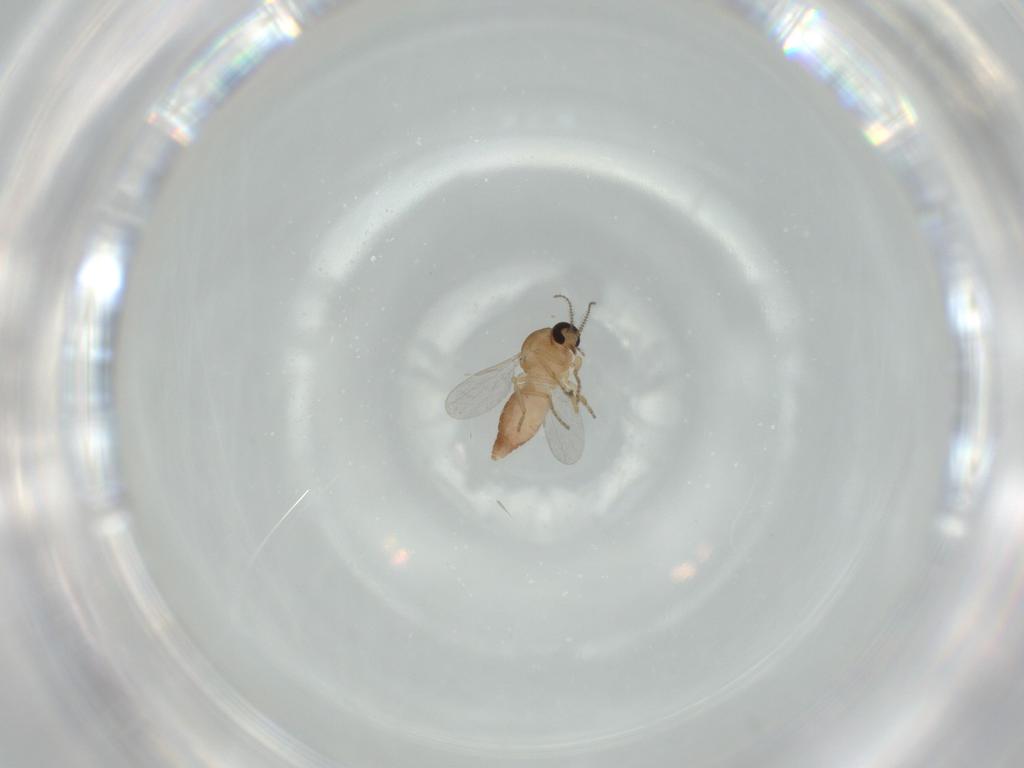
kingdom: Animalia
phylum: Arthropoda
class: Insecta
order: Diptera
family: Ceratopogonidae
